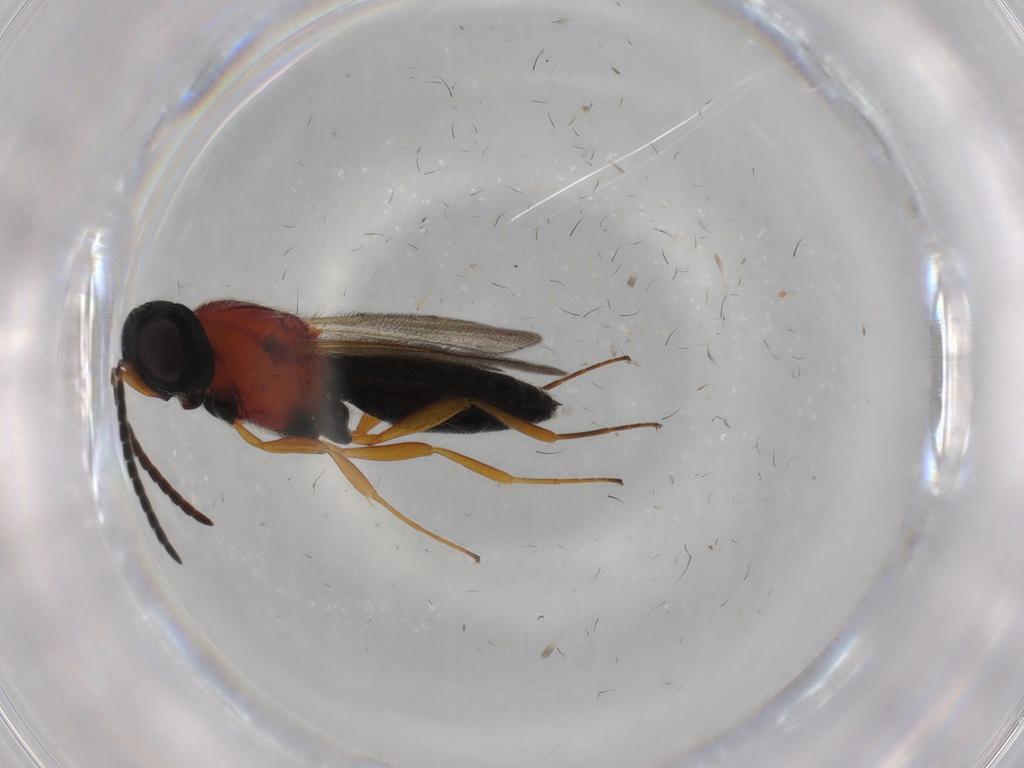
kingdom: Animalia
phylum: Arthropoda
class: Insecta
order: Hymenoptera
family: Scelionidae
